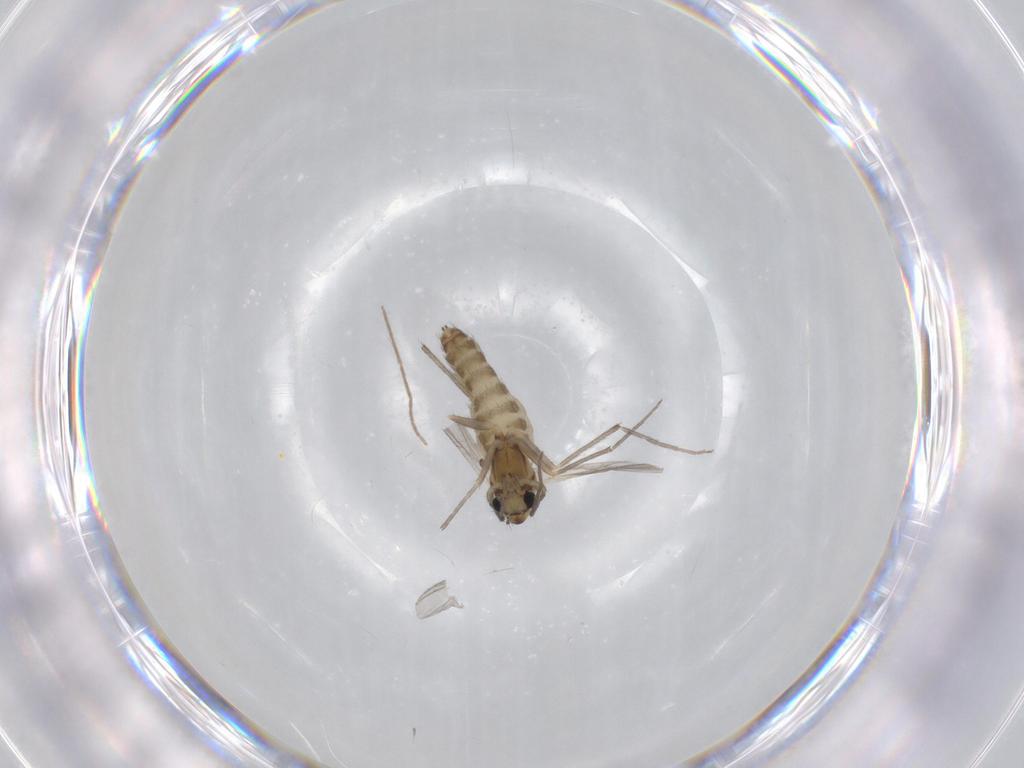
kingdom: Animalia
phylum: Arthropoda
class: Insecta
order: Diptera
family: Chironomidae
